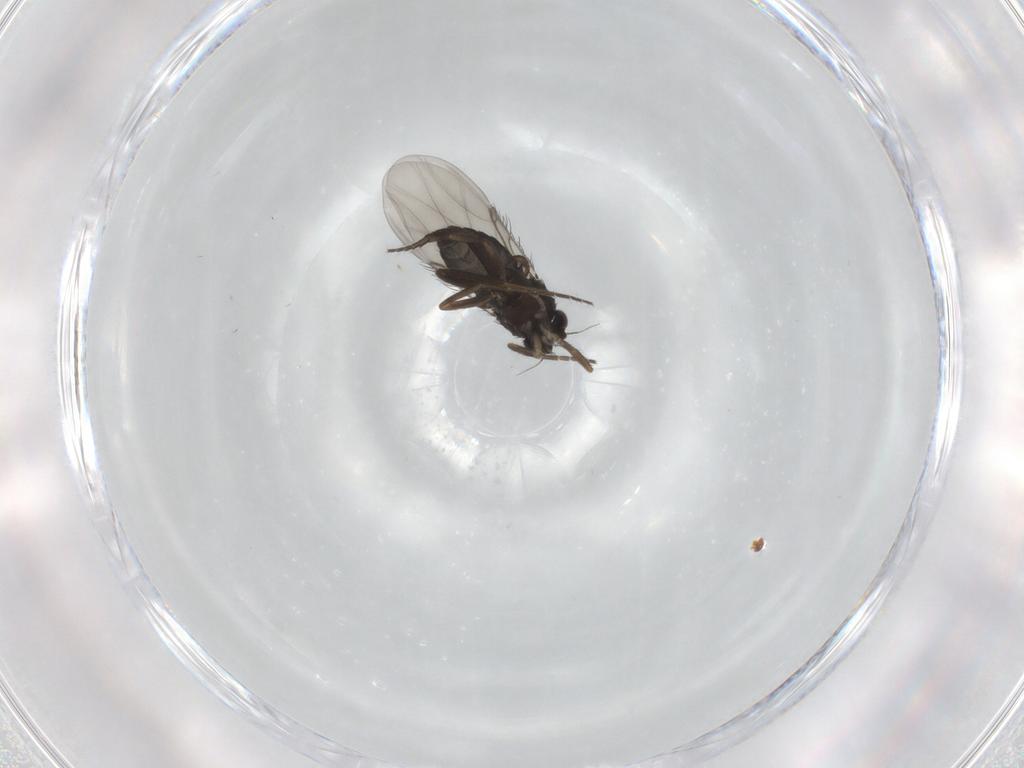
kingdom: Animalia
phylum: Arthropoda
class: Insecta
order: Diptera
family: Phoridae
